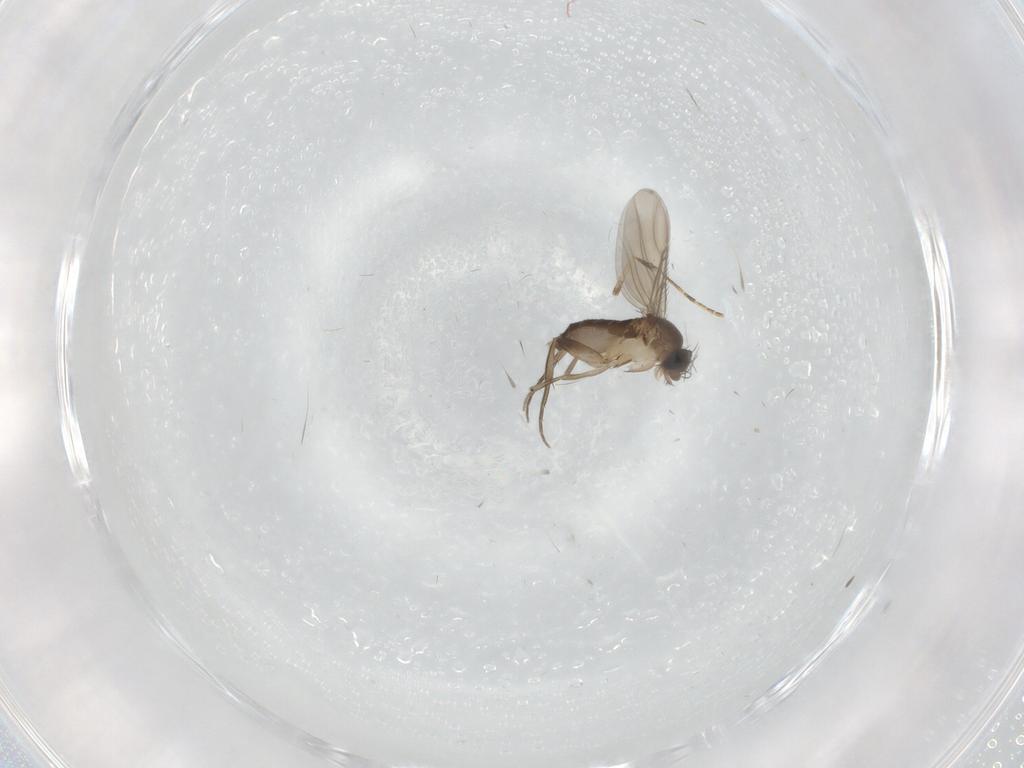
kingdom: Animalia
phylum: Arthropoda
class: Insecta
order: Diptera
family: Phoridae
